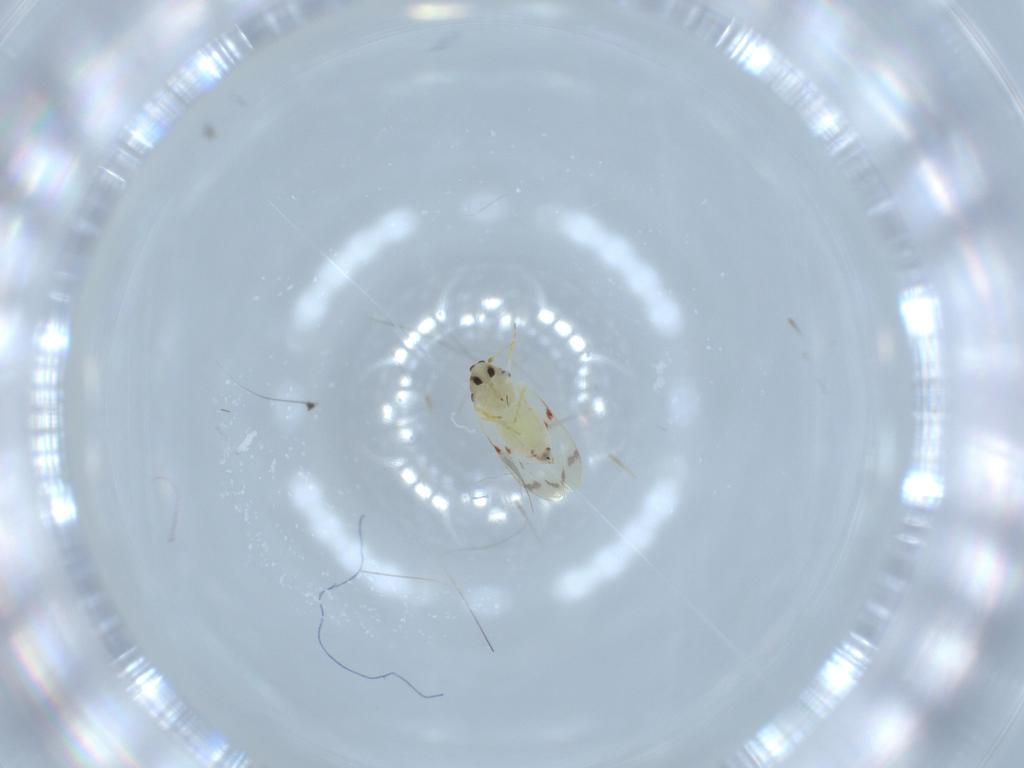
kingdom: Animalia
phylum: Arthropoda
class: Insecta
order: Hemiptera
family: Aleyrodidae
